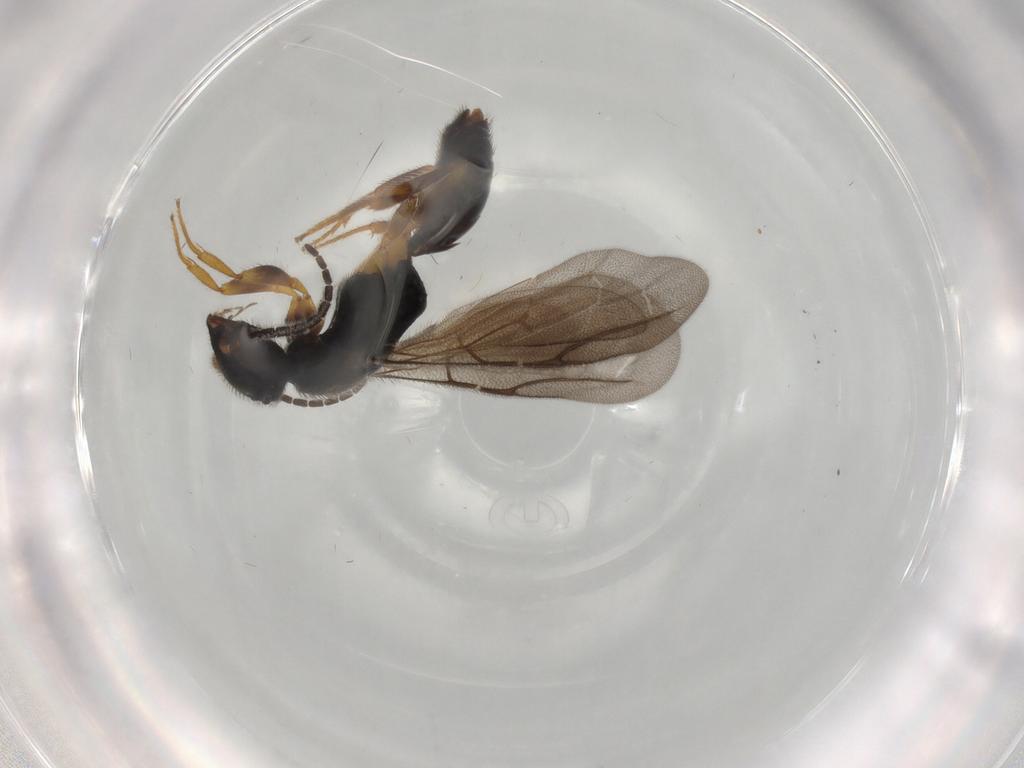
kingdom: Animalia
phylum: Arthropoda
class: Insecta
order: Hymenoptera
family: Bethylidae
